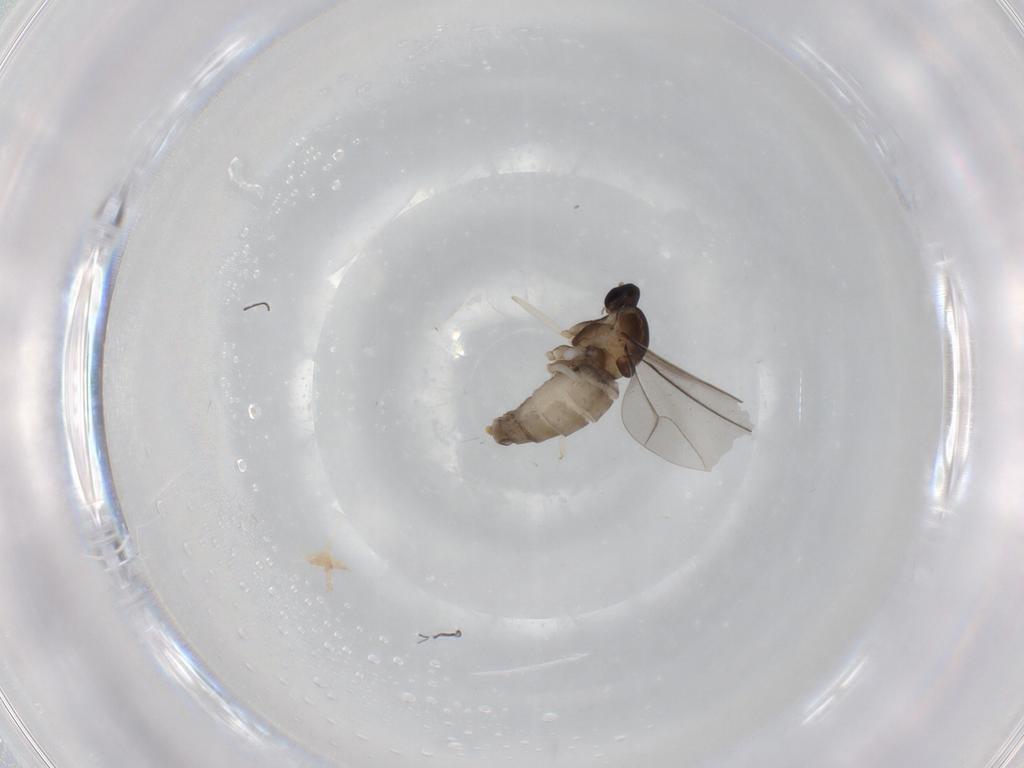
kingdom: Animalia
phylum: Arthropoda
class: Insecta
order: Diptera
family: Cecidomyiidae
